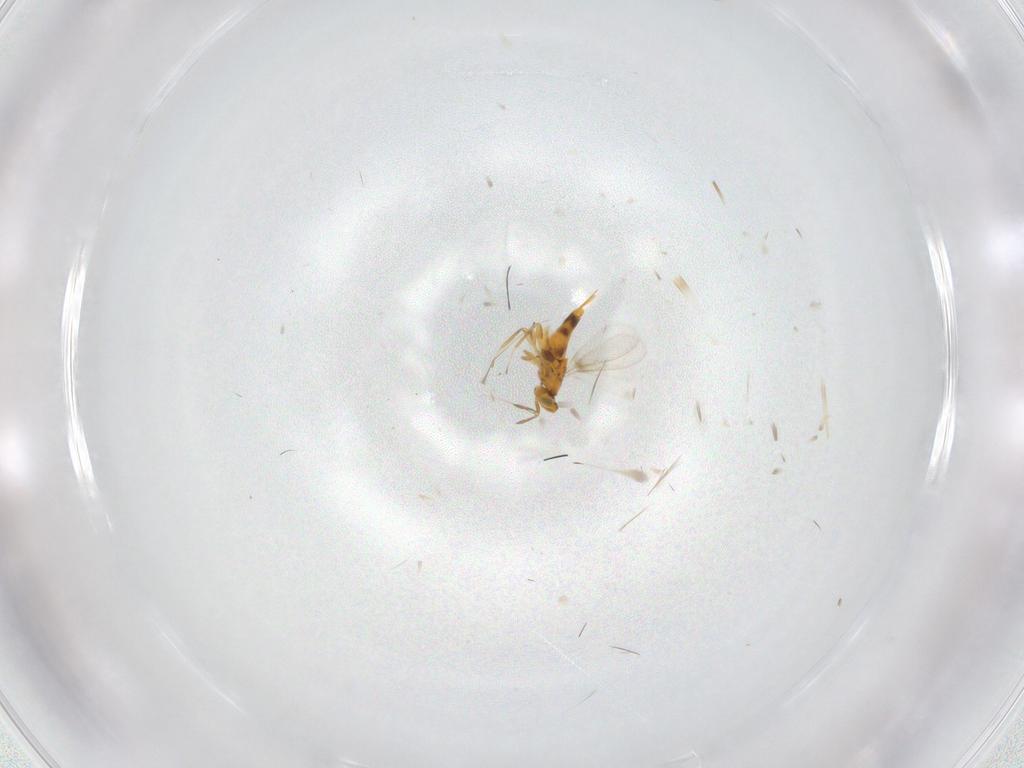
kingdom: Animalia
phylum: Arthropoda
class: Insecta
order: Hymenoptera
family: Aphelinidae
